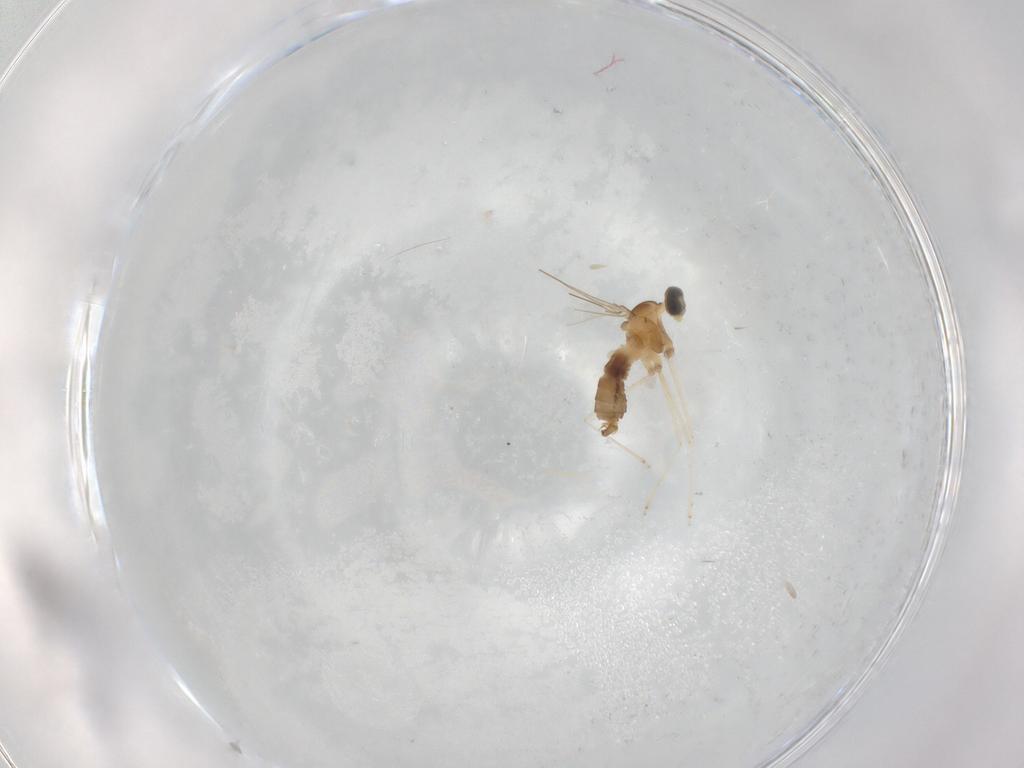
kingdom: Animalia
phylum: Arthropoda
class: Insecta
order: Diptera
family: Cecidomyiidae
